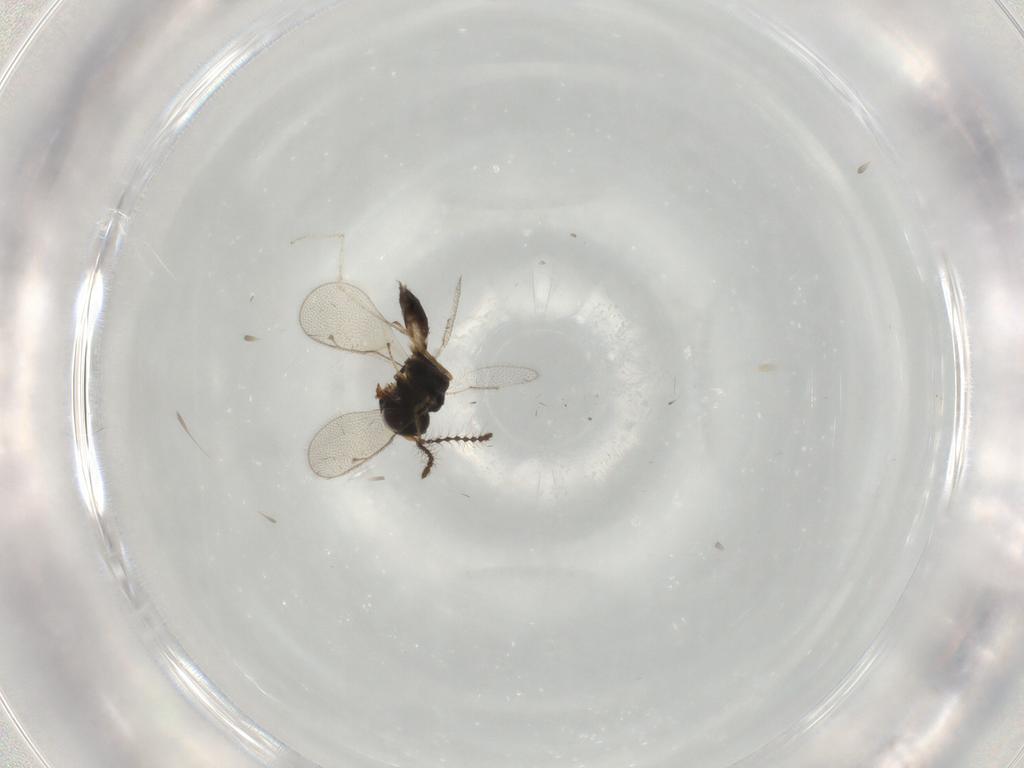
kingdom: Animalia
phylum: Arthropoda
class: Insecta
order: Hymenoptera
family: Pteromalidae
